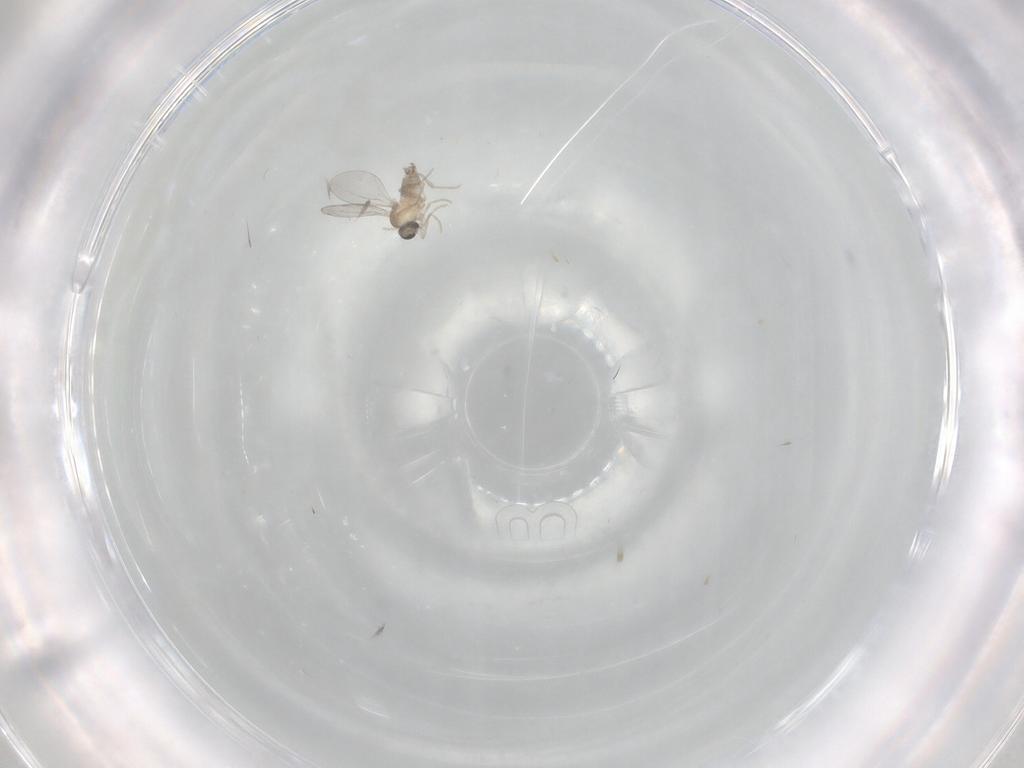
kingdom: Animalia
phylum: Arthropoda
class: Insecta
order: Diptera
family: Cecidomyiidae
